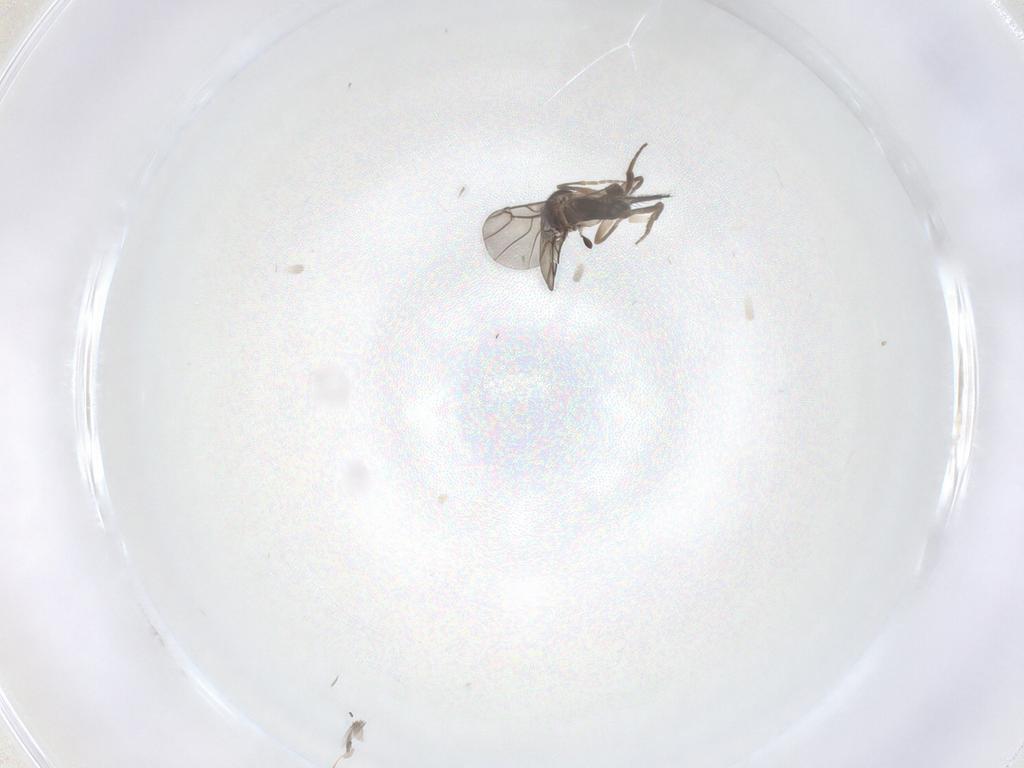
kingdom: Animalia
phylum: Arthropoda
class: Insecta
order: Diptera
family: Sciaridae
